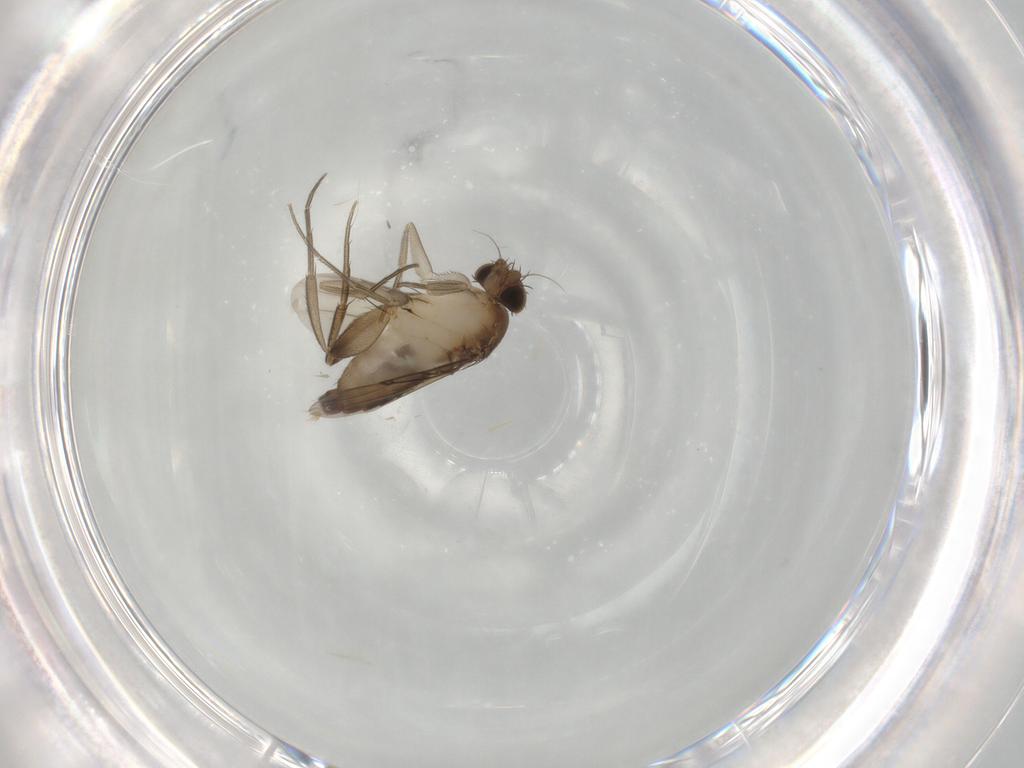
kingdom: Animalia
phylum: Arthropoda
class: Insecta
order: Diptera
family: Phoridae
